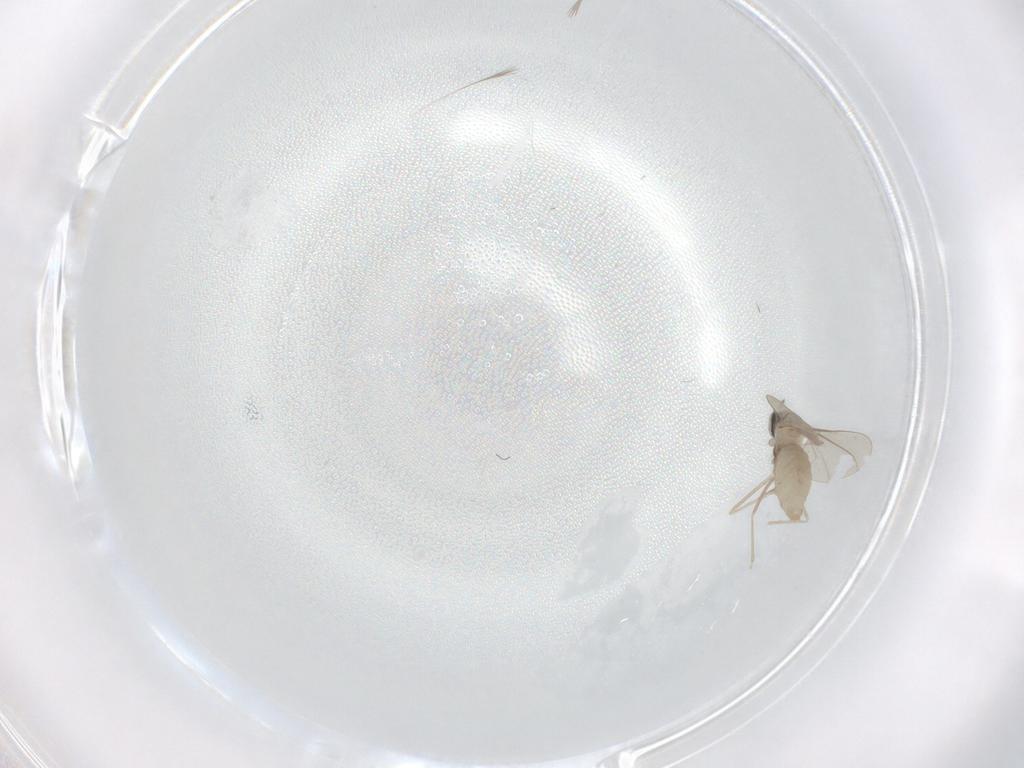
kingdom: Animalia
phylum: Arthropoda
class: Insecta
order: Diptera
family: Cecidomyiidae
